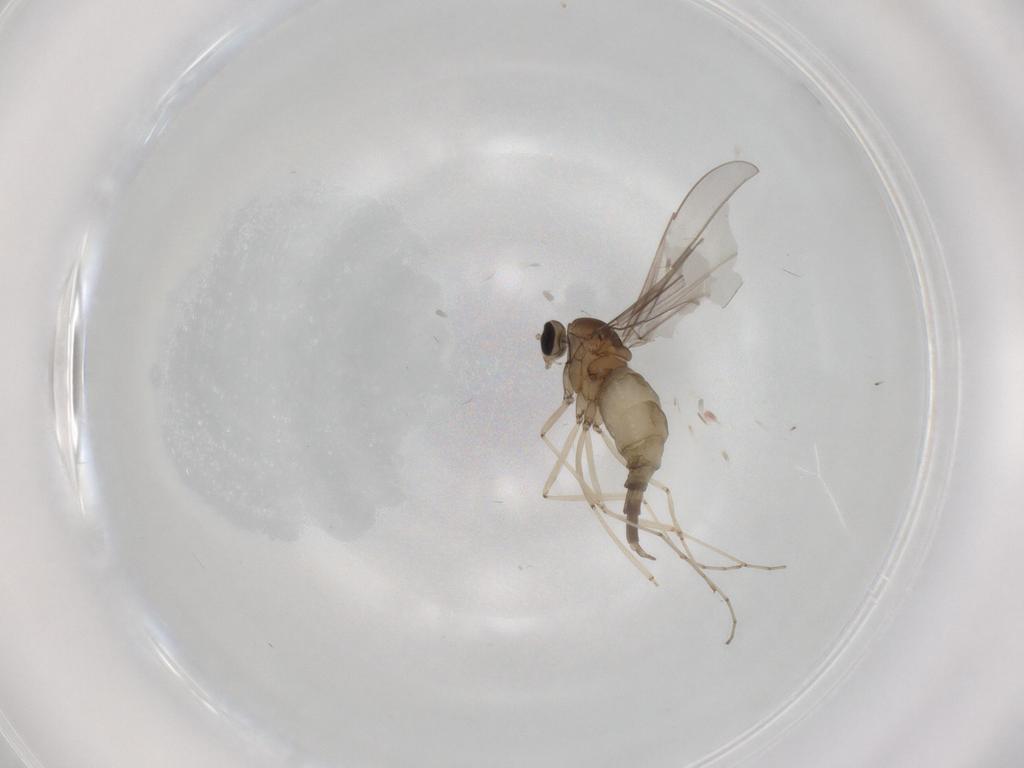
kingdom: Animalia
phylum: Arthropoda
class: Insecta
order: Diptera
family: Cecidomyiidae
